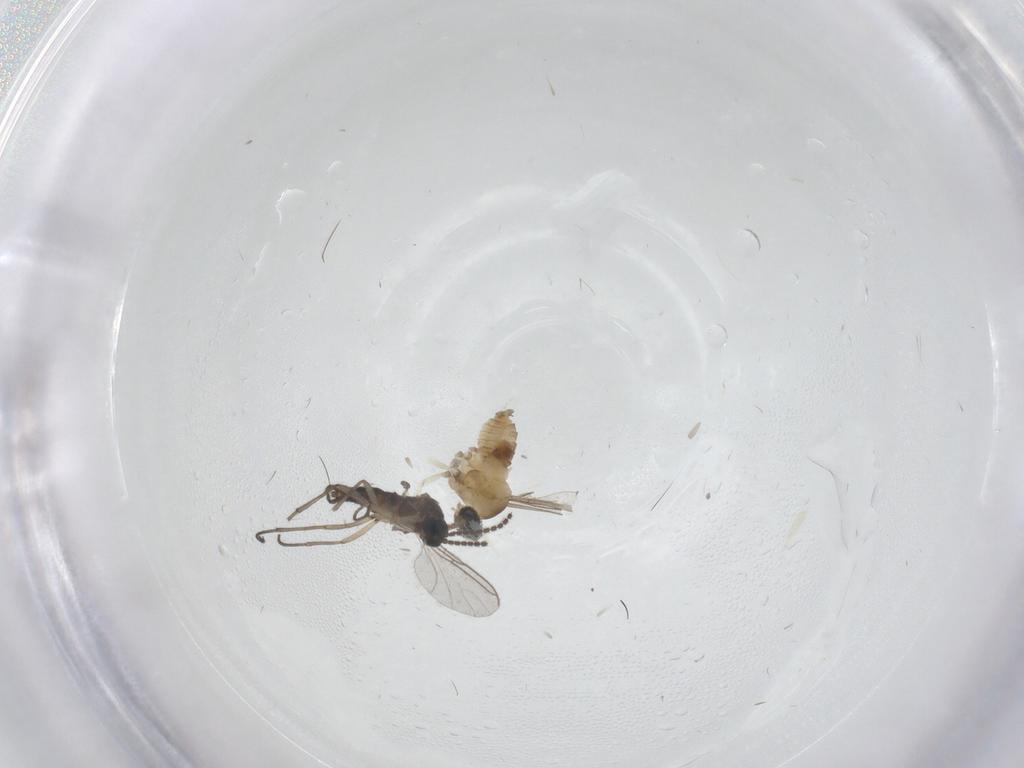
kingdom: Animalia
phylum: Arthropoda
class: Insecta
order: Diptera
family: Cecidomyiidae
